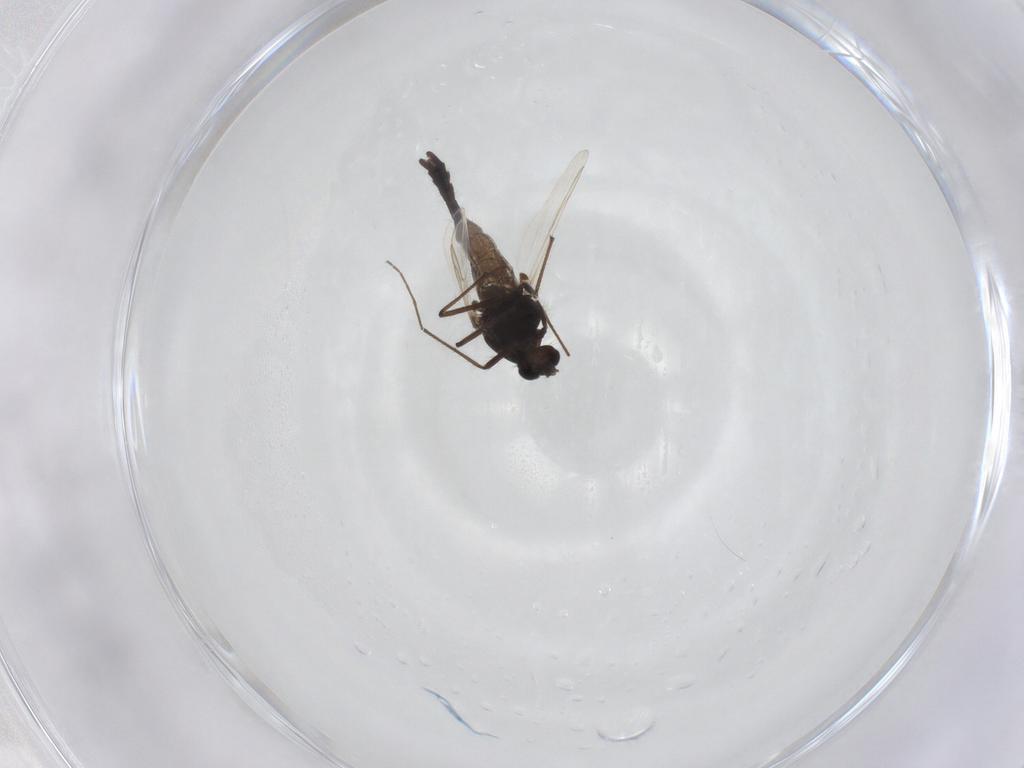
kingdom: Animalia
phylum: Arthropoda
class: Insecta
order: Diptera
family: Chironomidae
